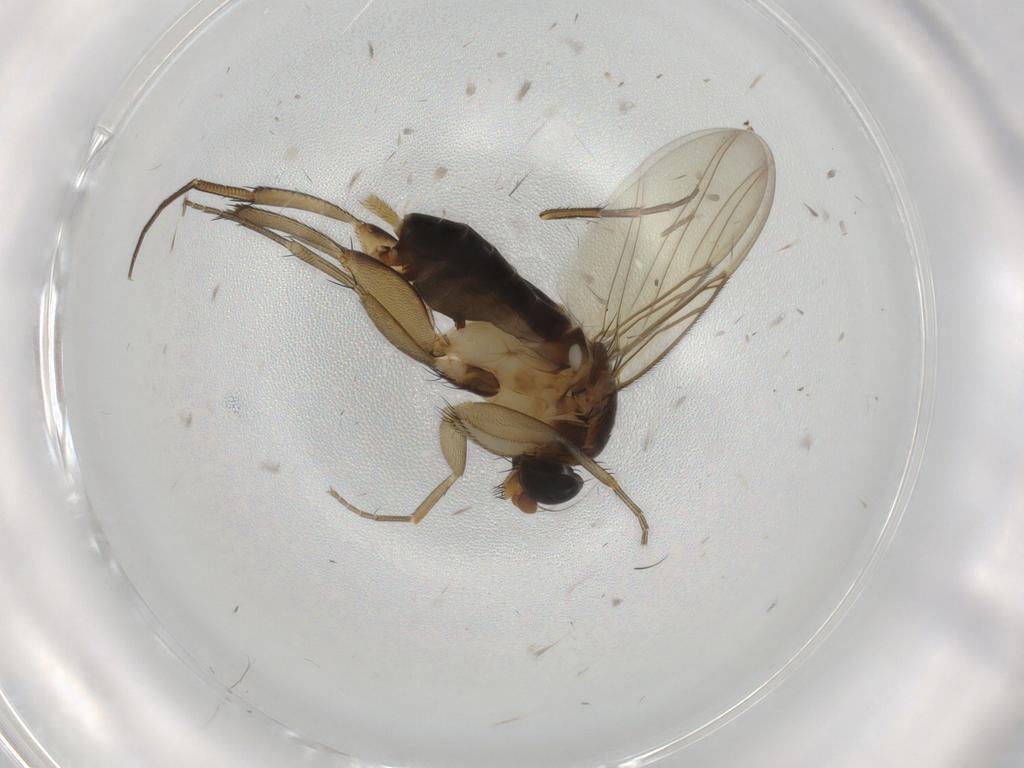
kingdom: Animalia
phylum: Arthropoda
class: Insecta
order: Diptera
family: Phoridae
